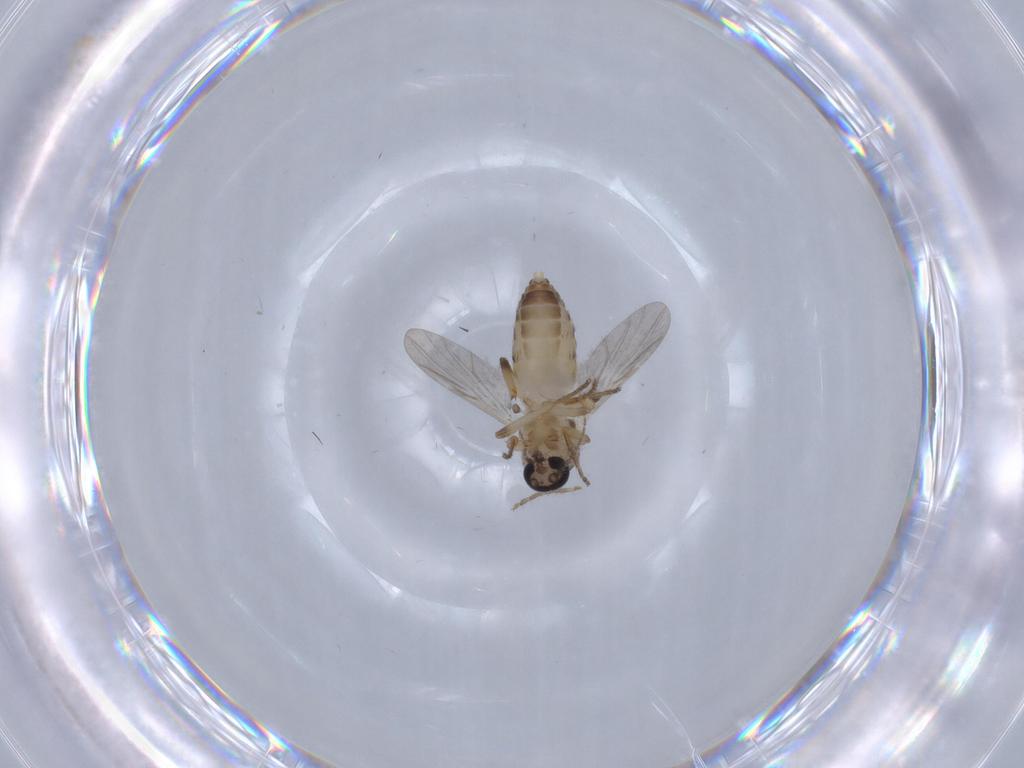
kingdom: Animalia
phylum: Arthropoda
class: Insecta
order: Diptera
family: Ceratopogonidae
